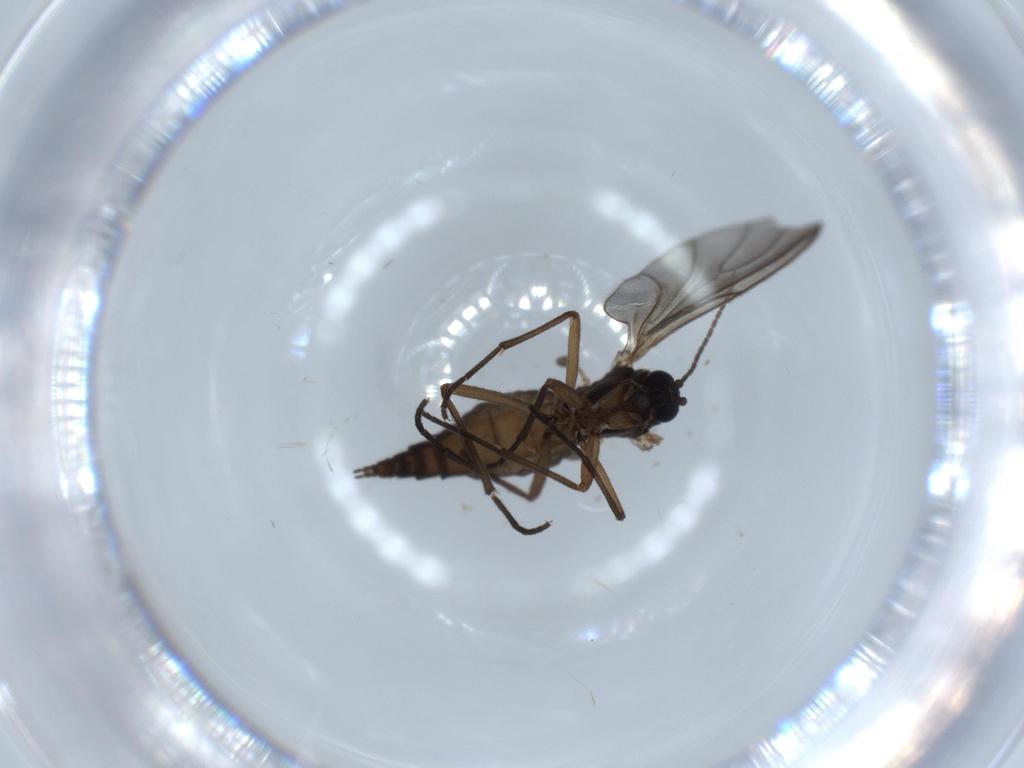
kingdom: Animalia
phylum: Arthropoda
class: Insecta
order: Diptera
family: Sciaridae
